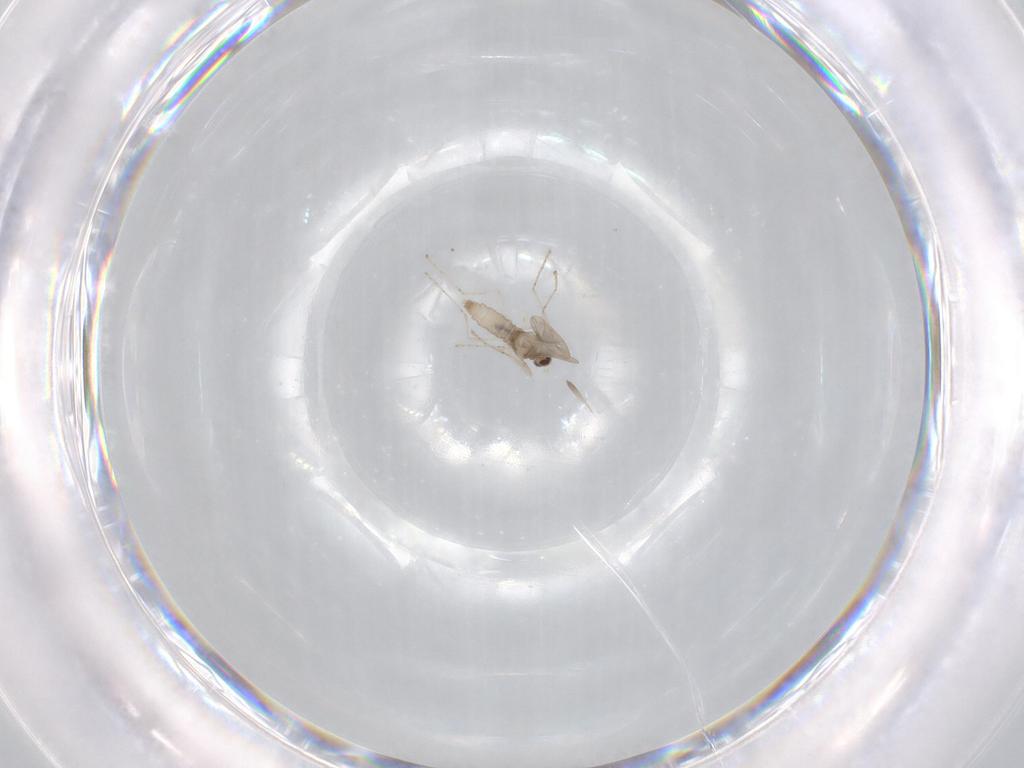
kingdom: Animalia
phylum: Arthropoda
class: Insecta
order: Diptera
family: Cecidomyiidae
